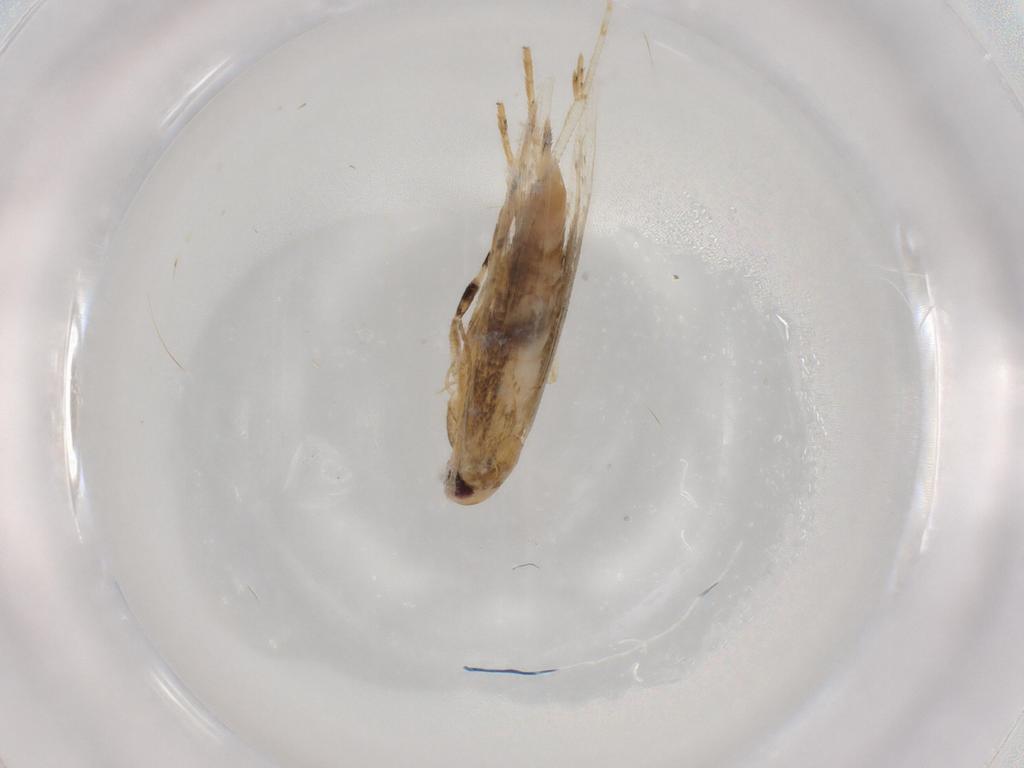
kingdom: Animalia
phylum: Arthropoda
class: Insecta
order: Lepidoptera
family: Cosmopterigidae
